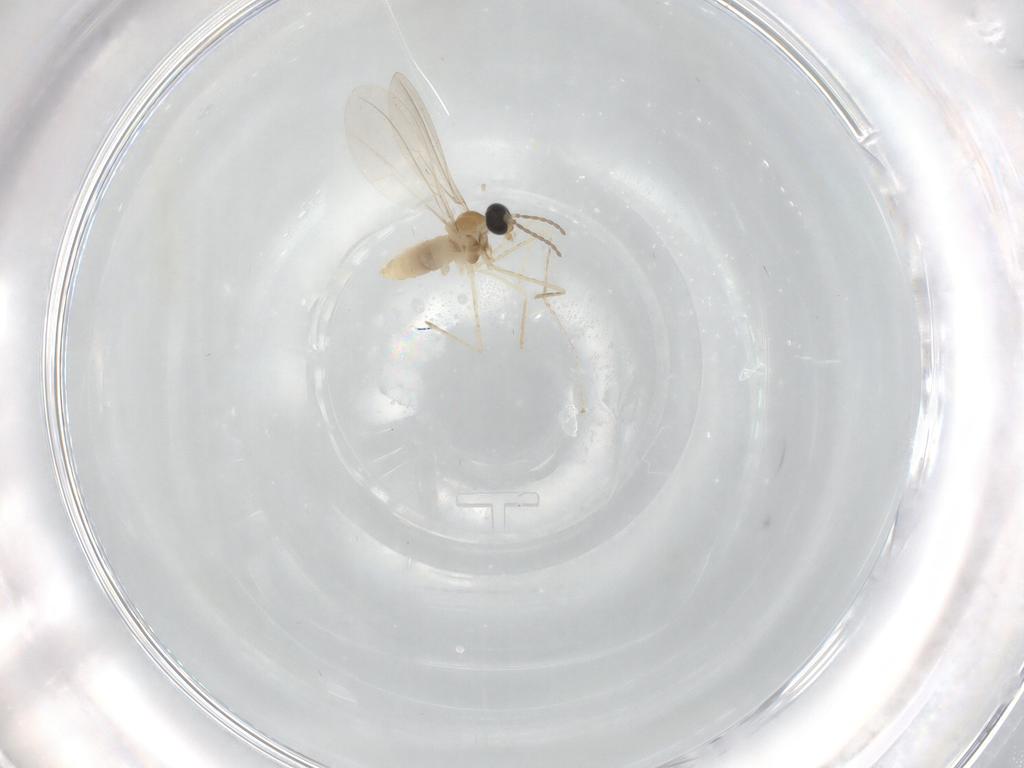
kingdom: Animalia
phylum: Arthropoda
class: Insecta
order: Diptera
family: Cecidomyiidae
